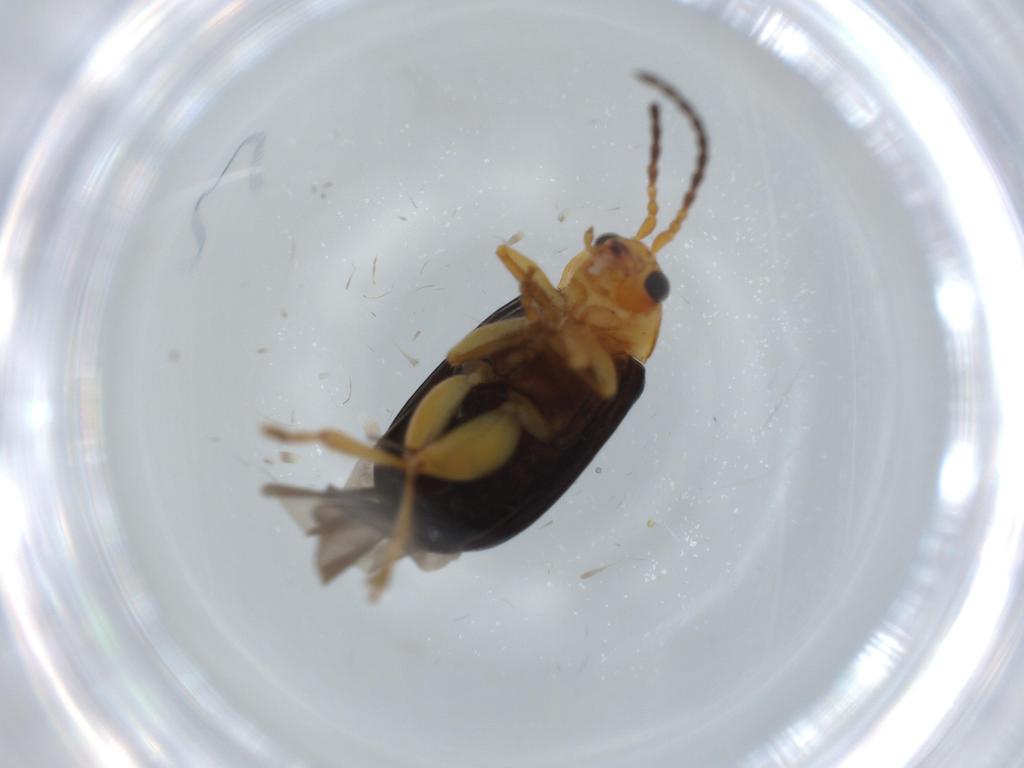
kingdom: Animalia
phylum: Arthropoda
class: Insecta
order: Coleoptera
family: Chrysomelidae
